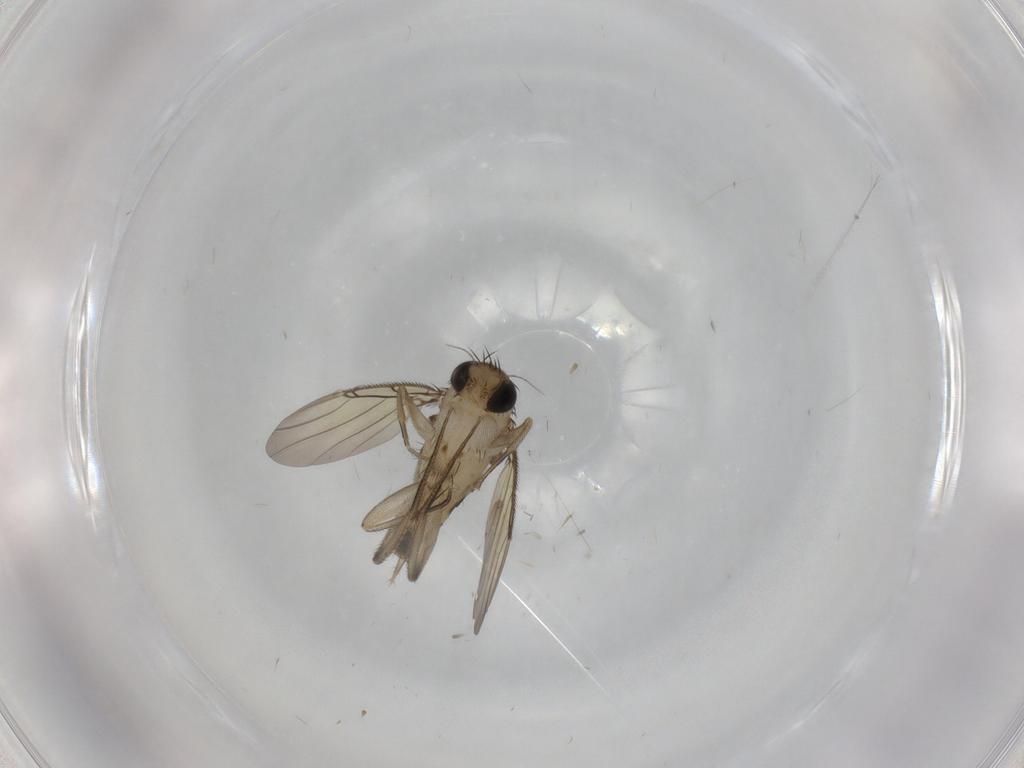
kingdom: Animalia
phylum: Arthropoda
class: Insecta
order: Diptera
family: Phoridae
